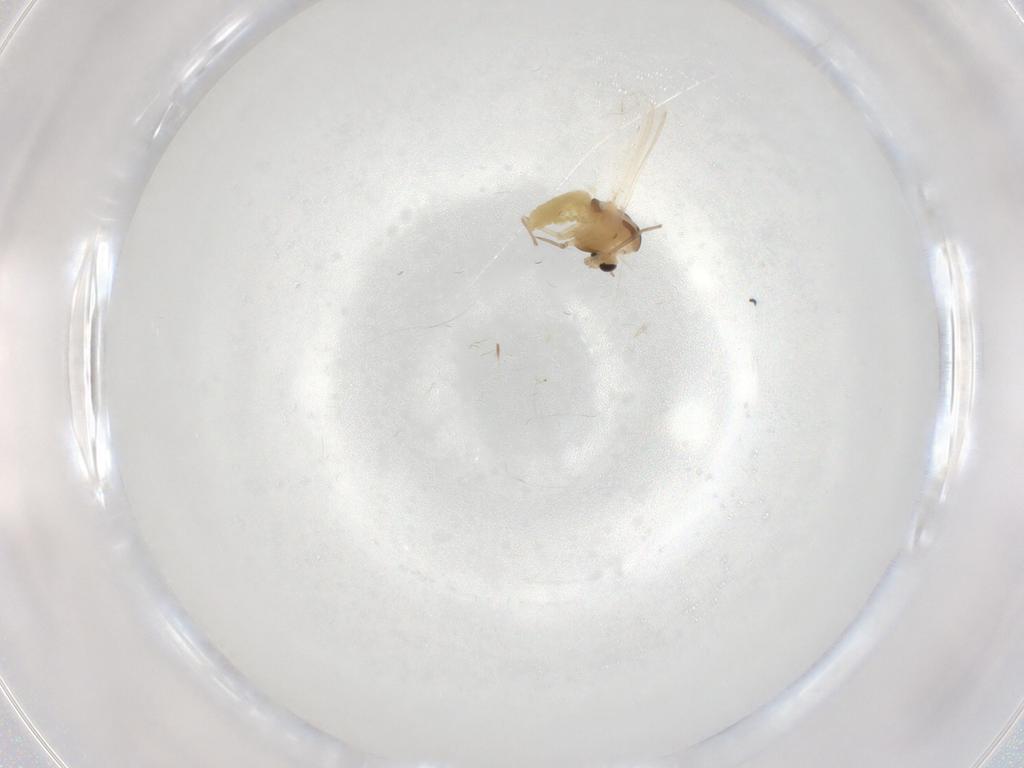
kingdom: Animalia
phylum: Arthropoda
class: Insecta
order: Diptera
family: Chironomidae
